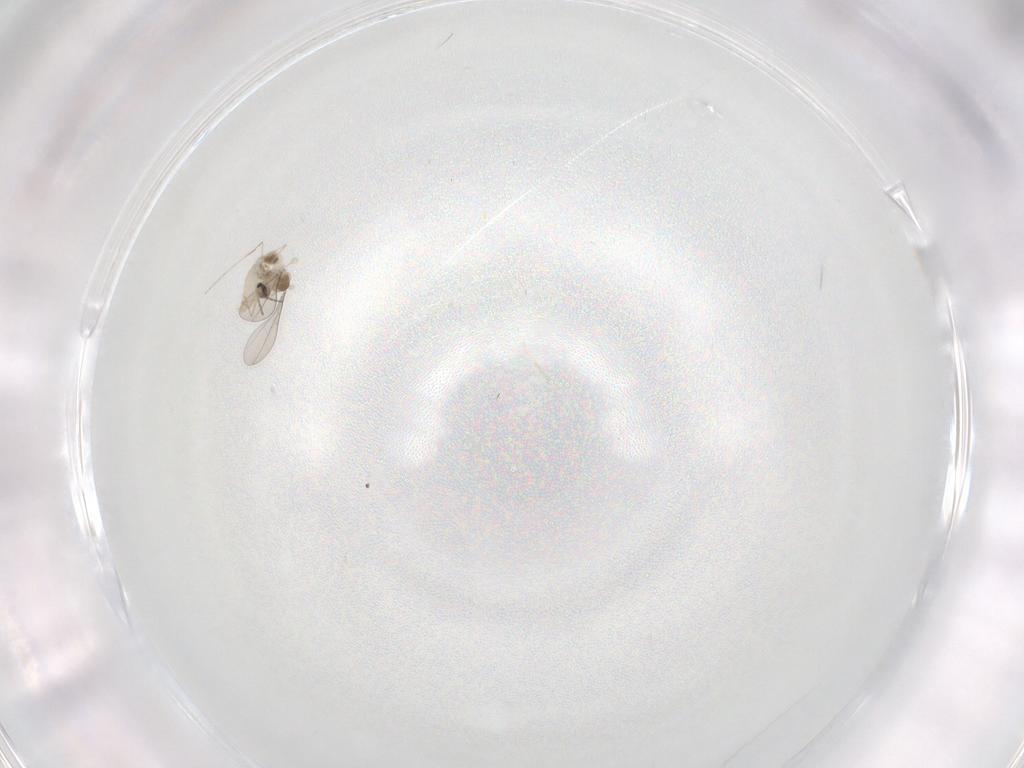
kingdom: Animalia
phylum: Arthropoda
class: Insecta
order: Diptera
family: Cecidomyiidae
